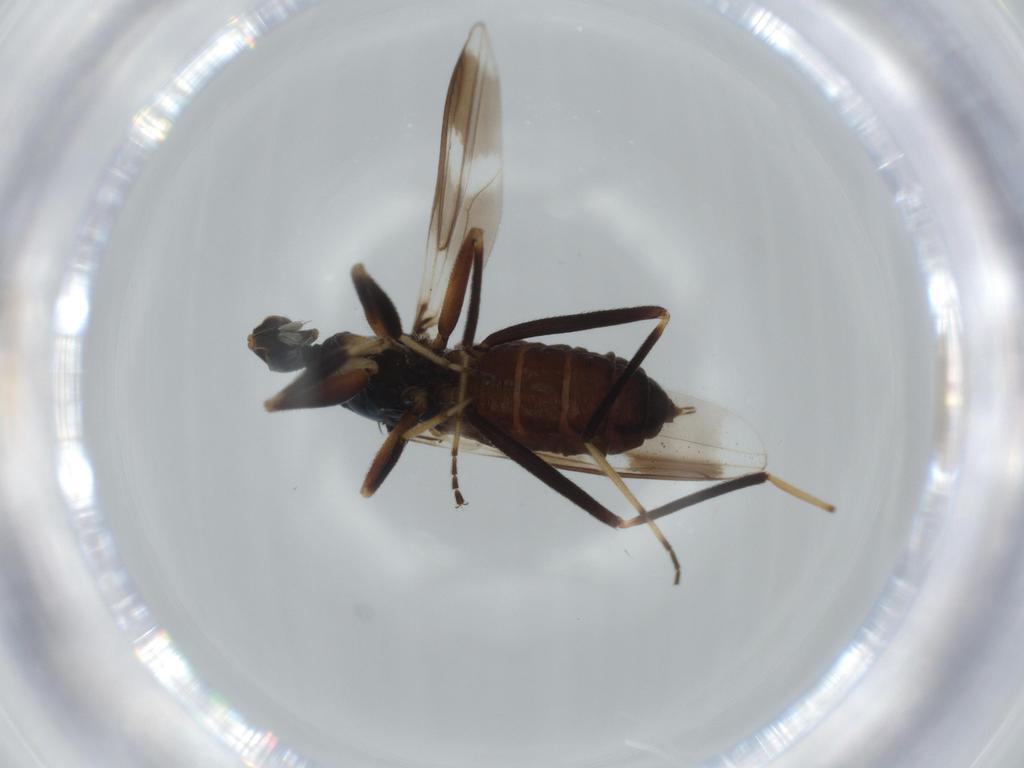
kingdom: Animalia
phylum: Arthropoda
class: Insecta
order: Diptera
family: Hybotidae
